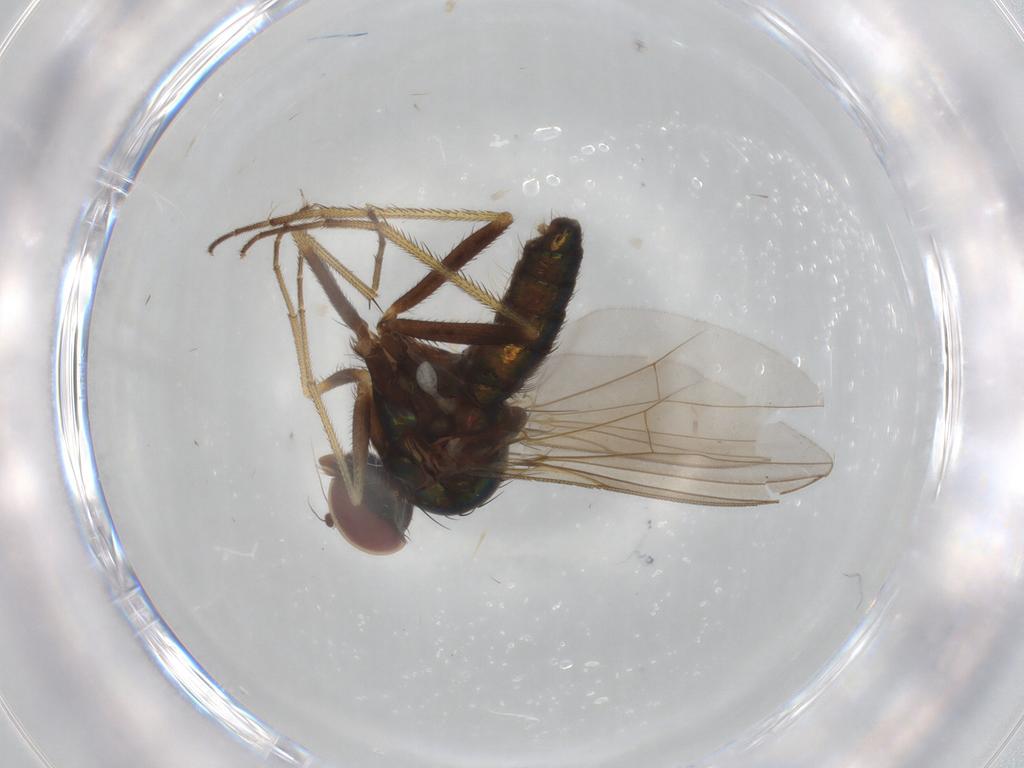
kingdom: Animalia
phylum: Arthropoda
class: Insecta
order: Diptera
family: Dolichopodidae
